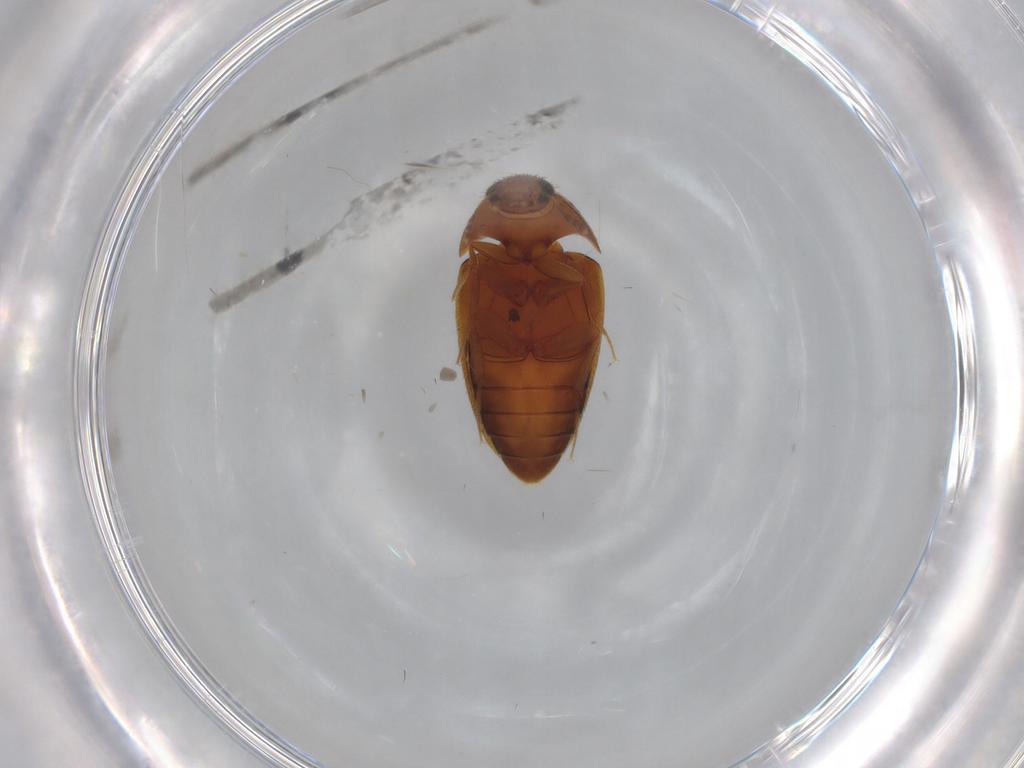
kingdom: Animalia
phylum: Arthropoda
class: Insecta
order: Coleoptera
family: Mycetophagidae
